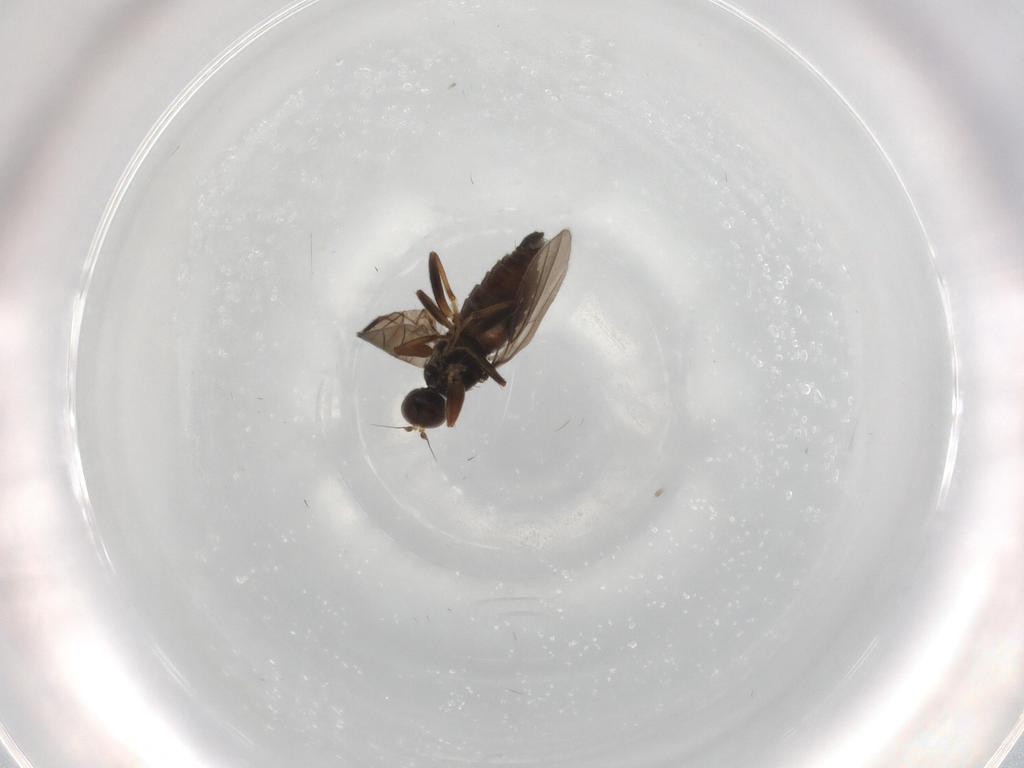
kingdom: Animalia
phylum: Arthropoda
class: Insecta
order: Diptera
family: Hybotidae
